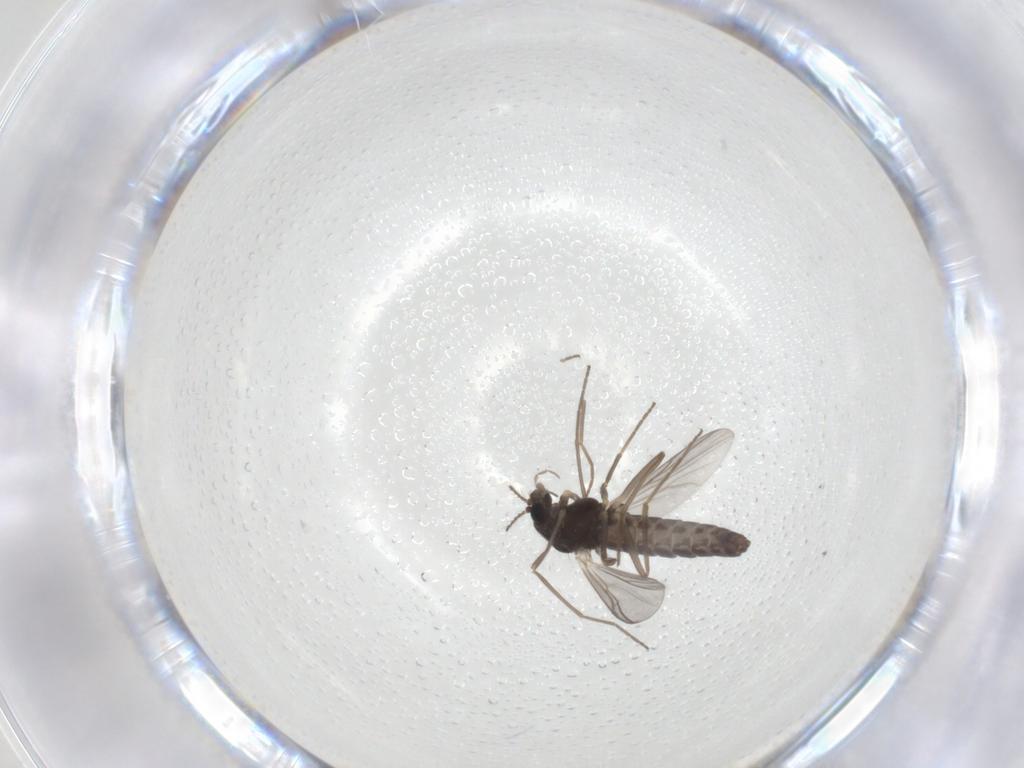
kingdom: Animalia
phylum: Arthropoda
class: Insecta
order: Diptera
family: Chironomidae
